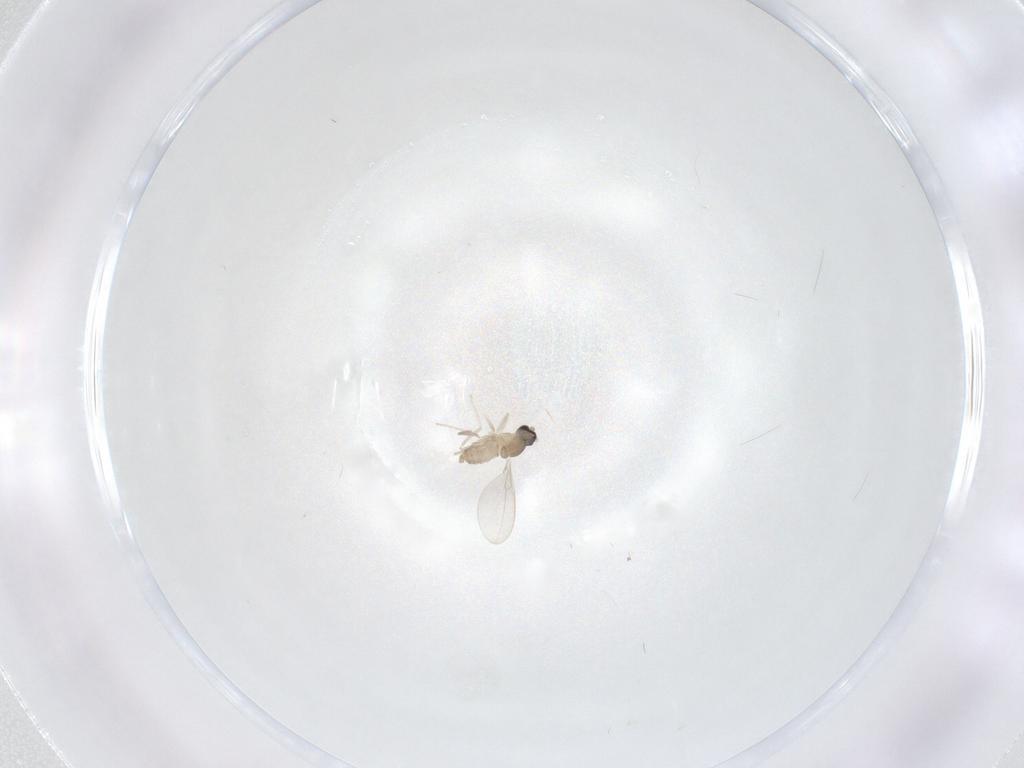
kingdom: Animalia
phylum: Arthropoda
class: Insecta
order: Diptera
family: Cecidomyiidae
